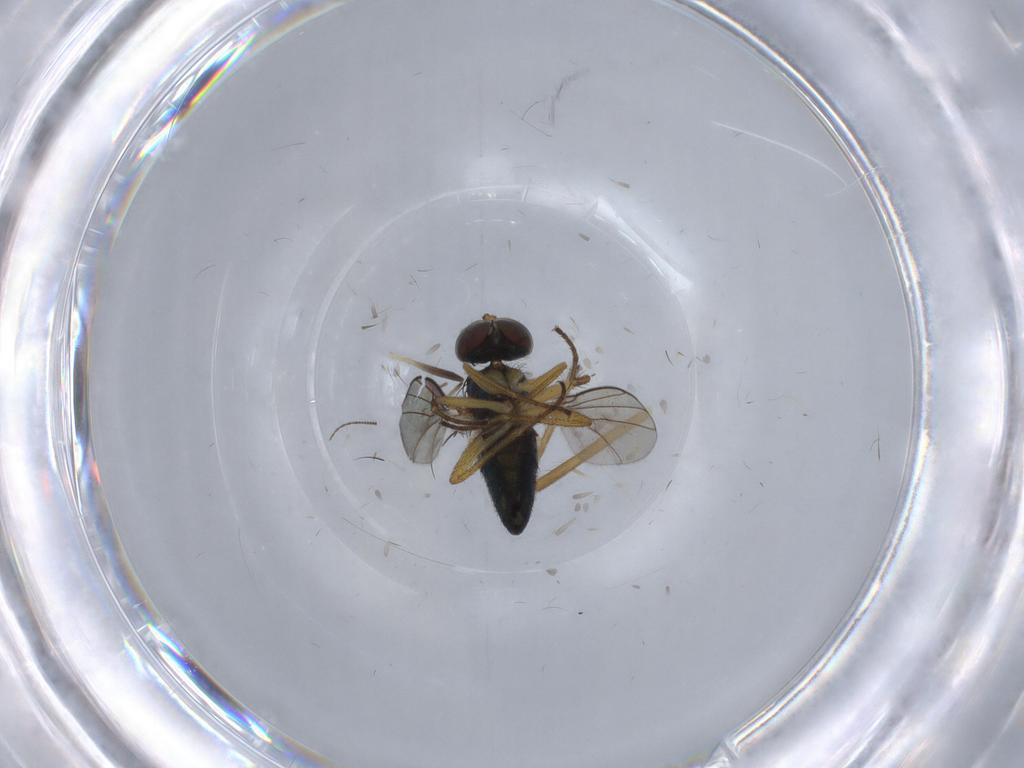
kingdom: Animalia
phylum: Arthropoda
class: Insecta
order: Diptera
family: Chironomidae
